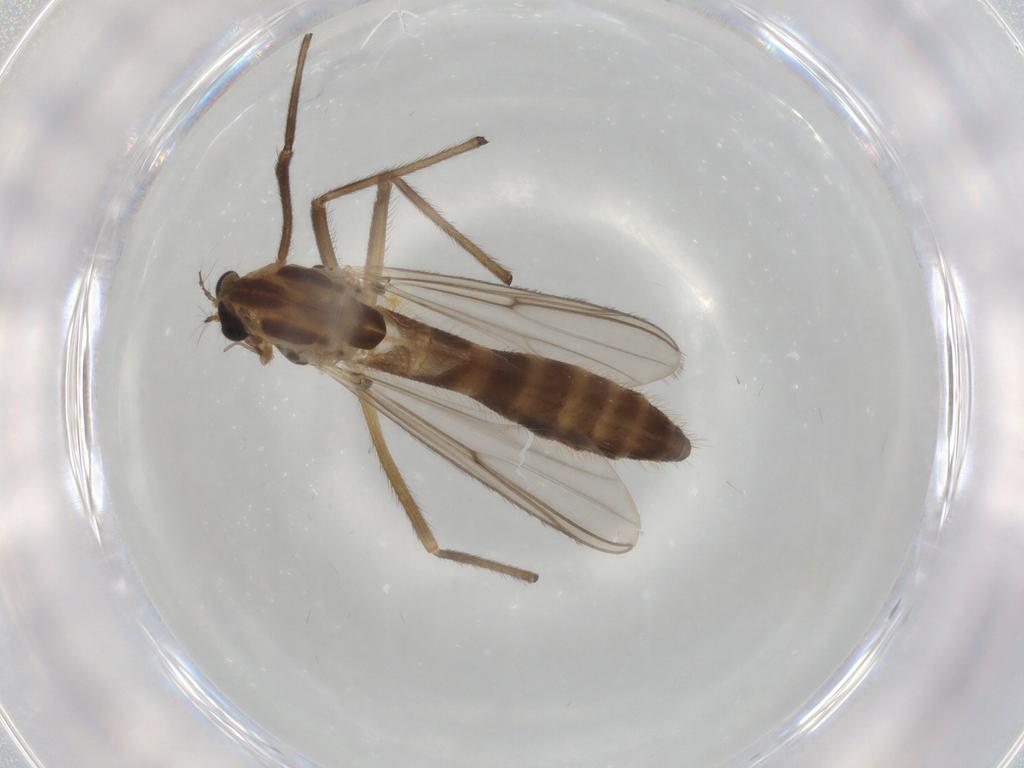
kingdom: Animalia
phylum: Arthropoda
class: Insecta
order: Diptera
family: Chironomidae
